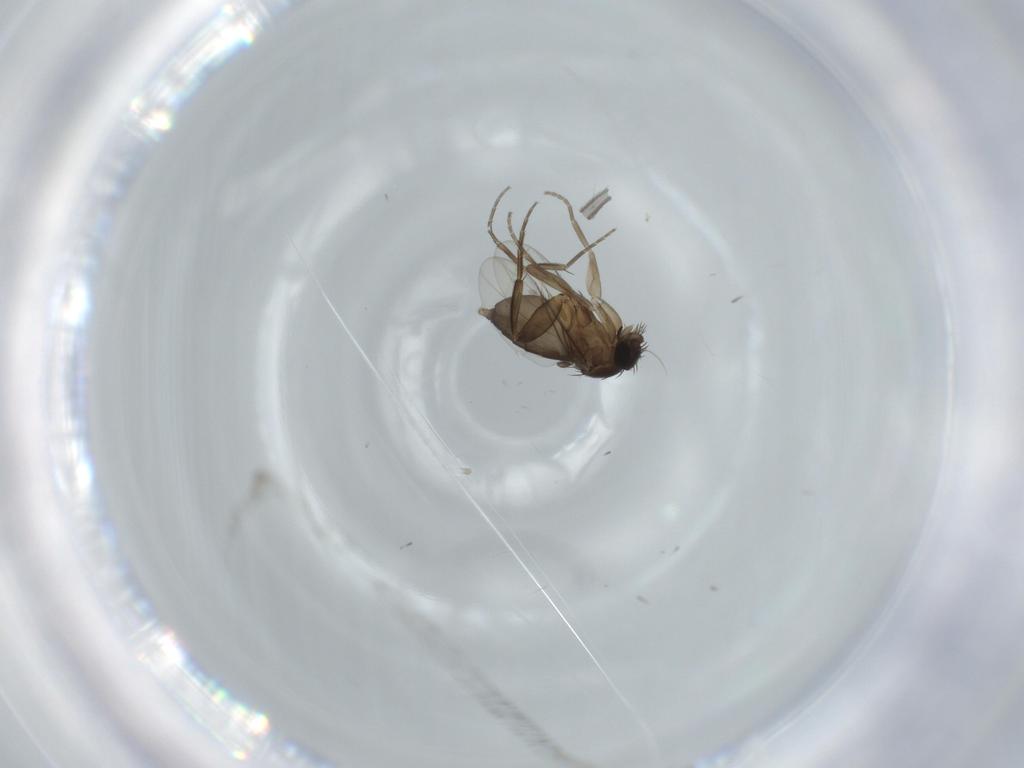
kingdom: Animalia
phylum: Arthropoda
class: Insecta
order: Diptera
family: Phoridae
